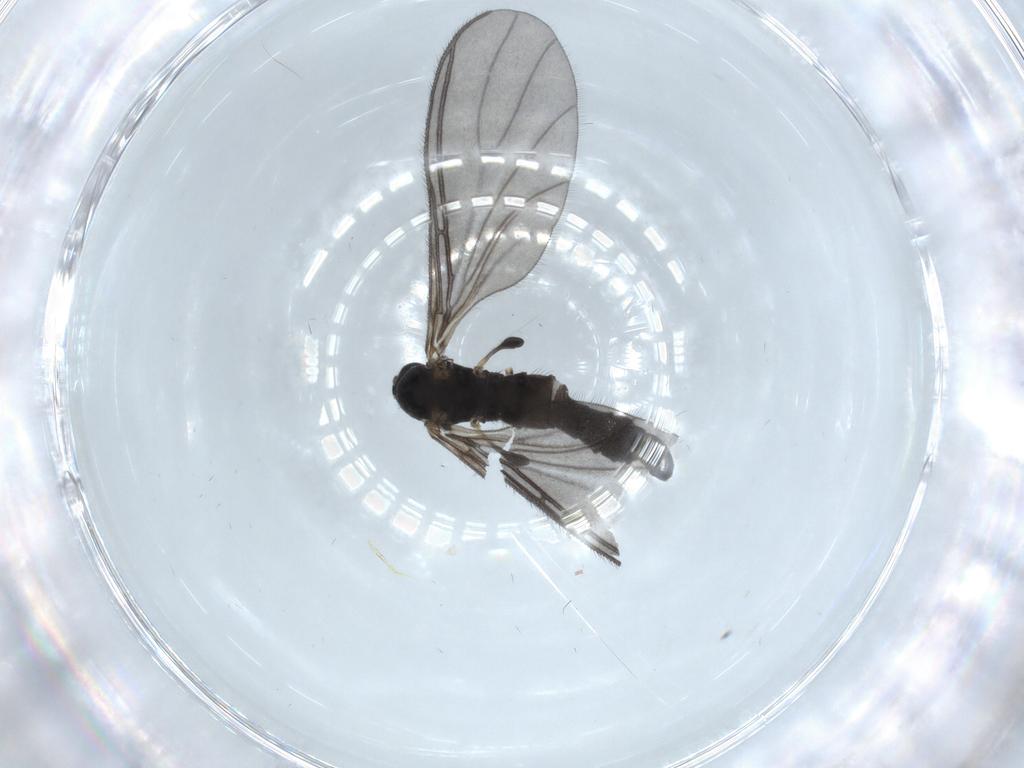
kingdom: Animalia
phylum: Arthropoda
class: Insecta
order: Diptera
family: Sciaridae
